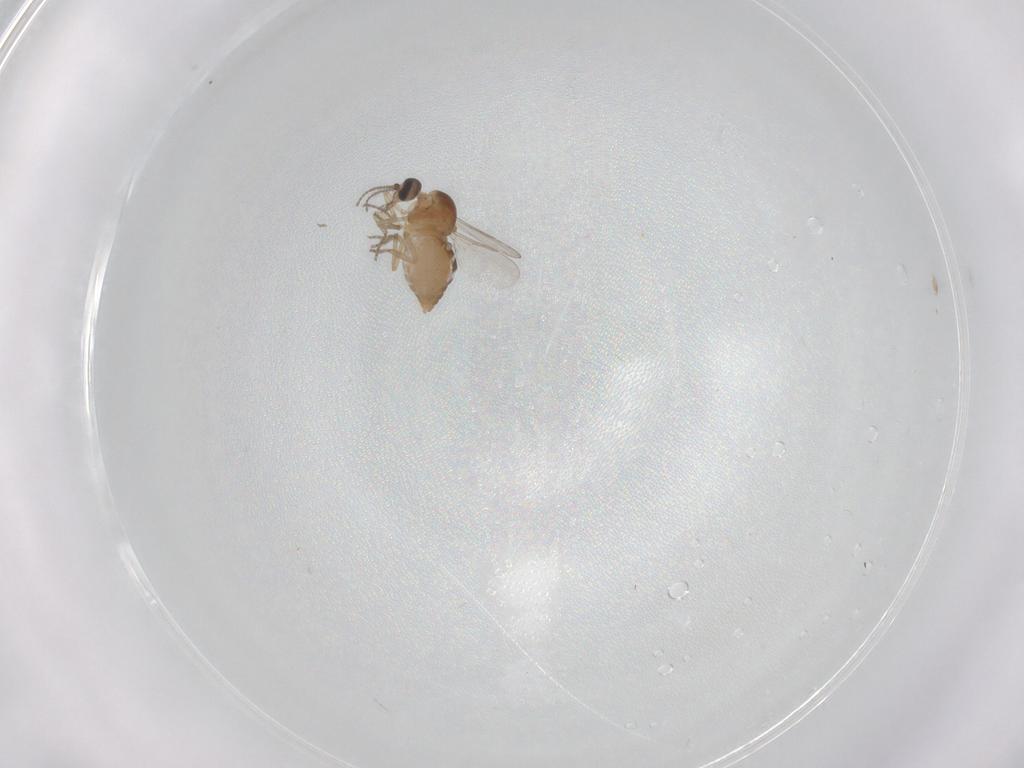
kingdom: Animalia
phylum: Arthropoda
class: Insecta
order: Diptera
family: Ceratopogonidae
